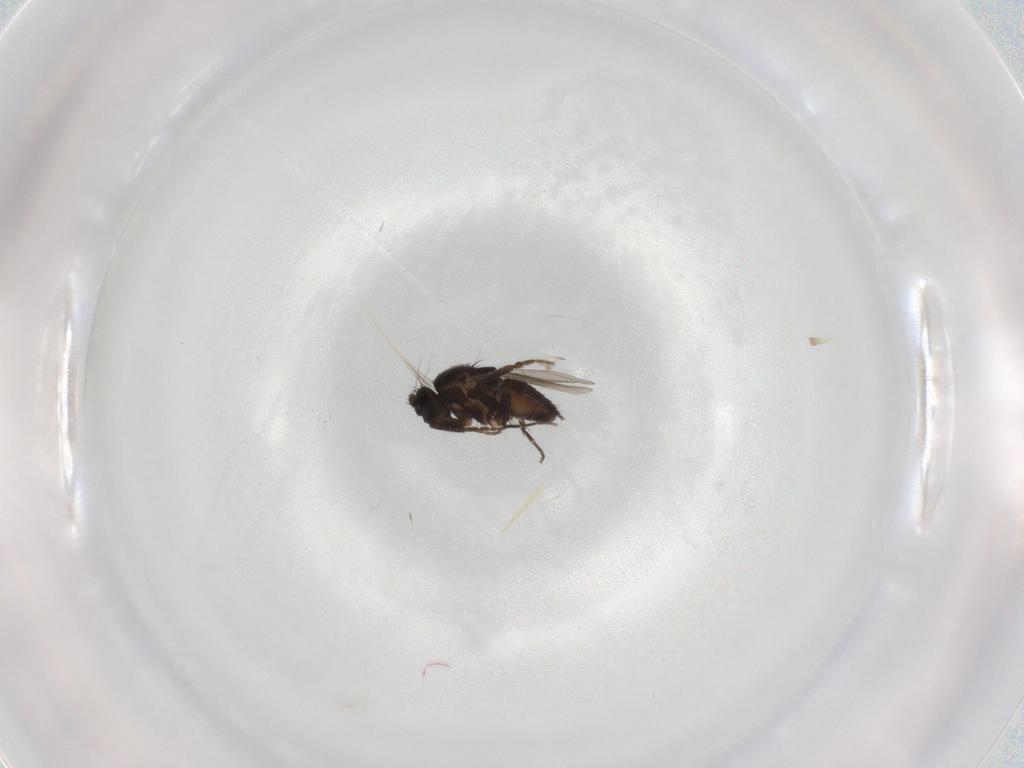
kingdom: Animalia
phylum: Arthropoda
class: Insecta
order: Diptera
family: Sphaeroceridae
